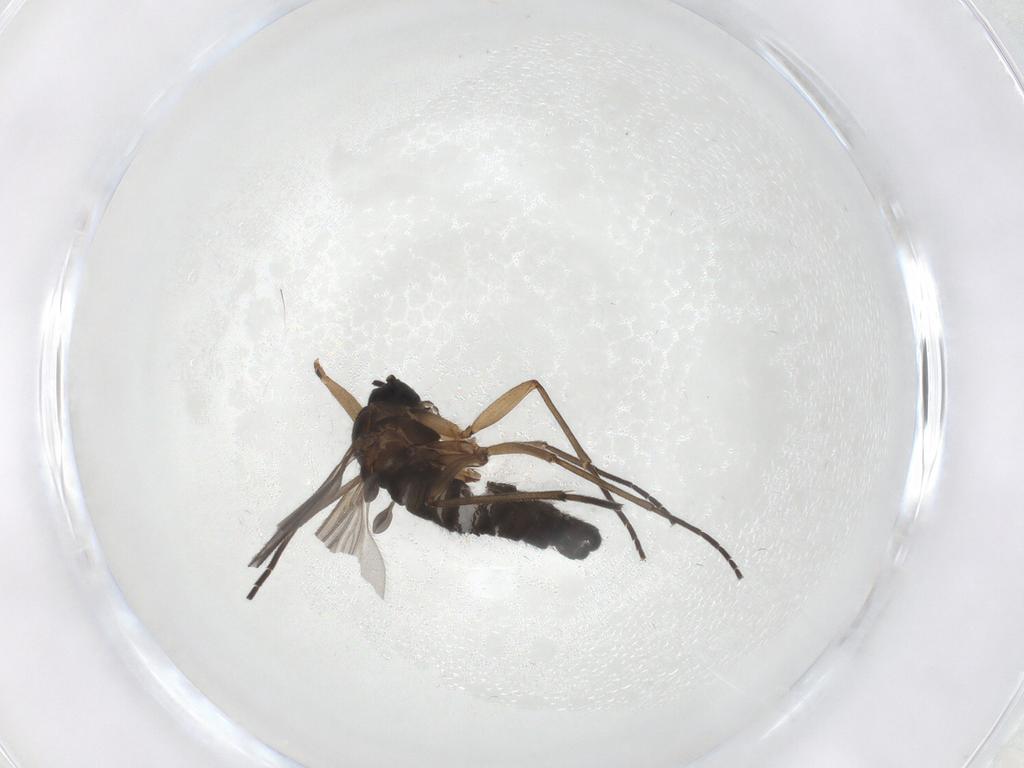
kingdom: Animalia
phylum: Arthropoda
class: Insecta
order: Diptera
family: Sciaridae
